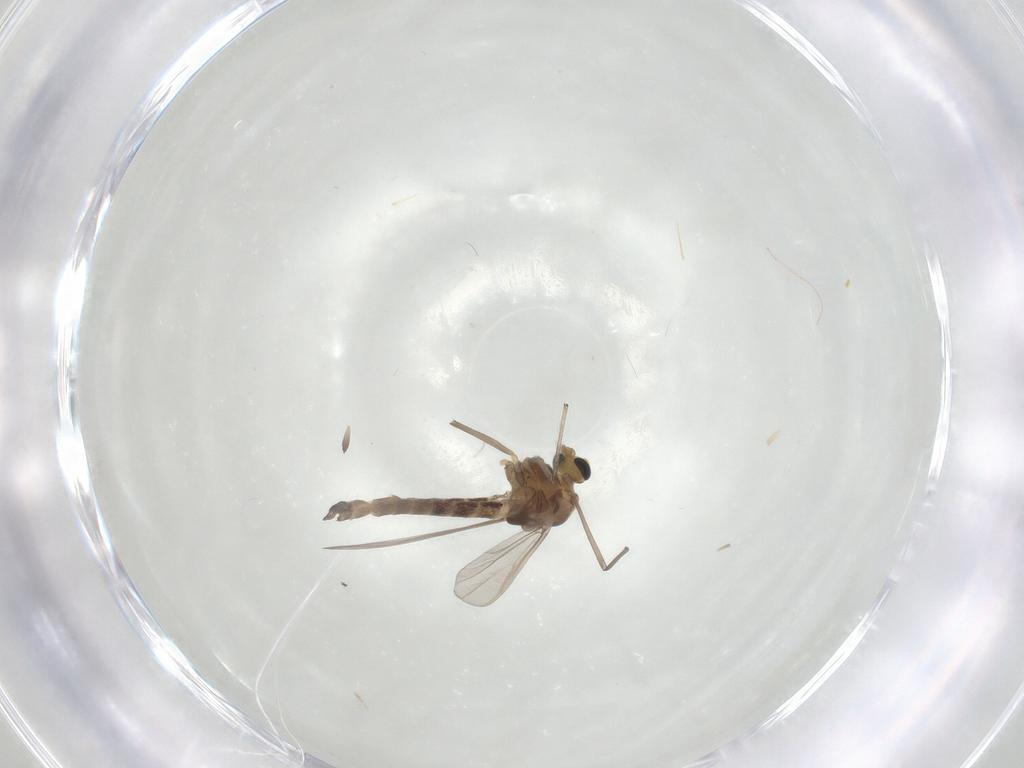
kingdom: Animalia
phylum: Arthropoda
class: Insecta
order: Diptera
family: Chironomidae
